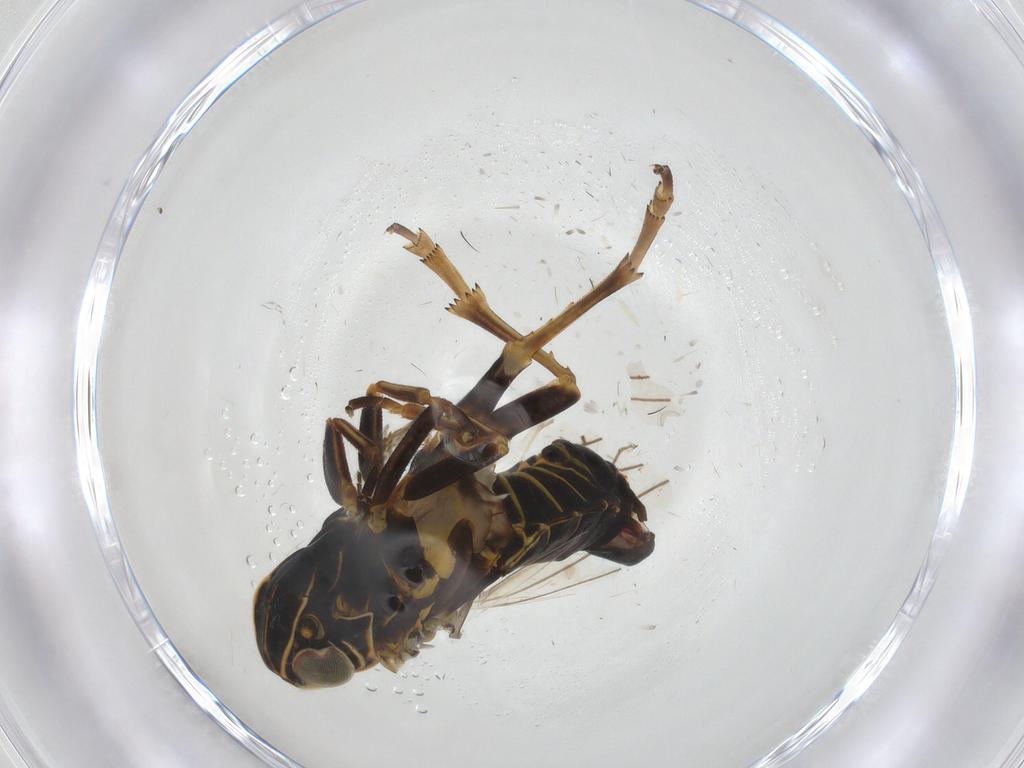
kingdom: Animalia
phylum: Arthropoda
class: Insecta
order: Hemiptera
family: Cixiidae
